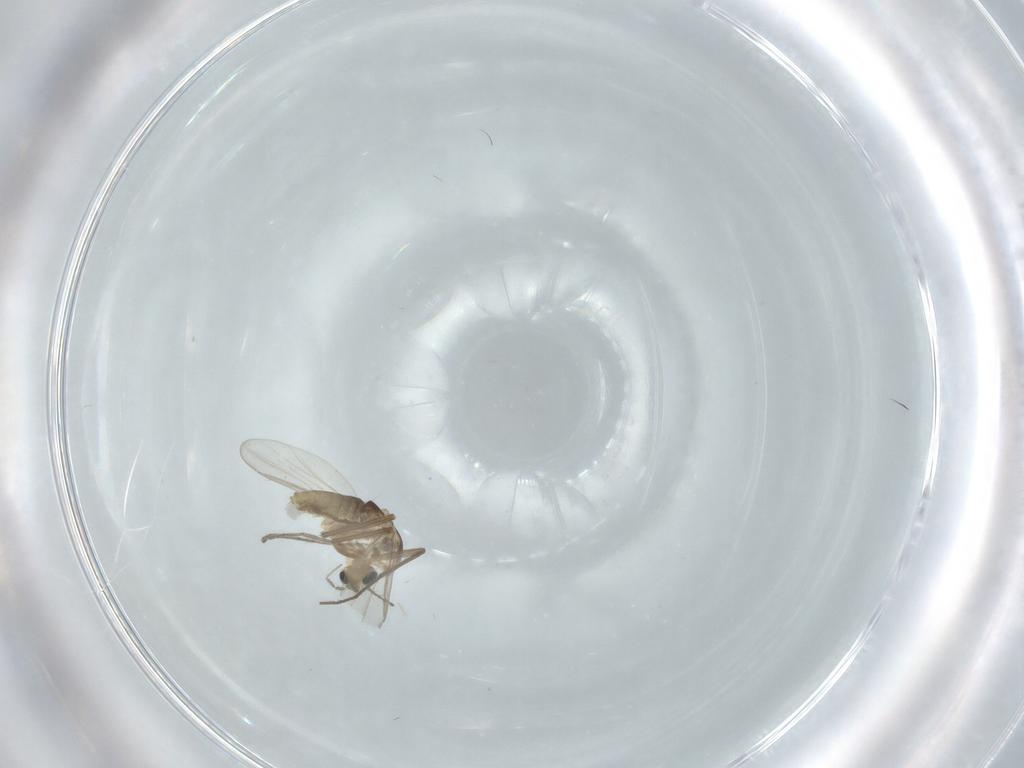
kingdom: Animalia
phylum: Arthropoda
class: Insecta
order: Diptera
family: Chironomidae
